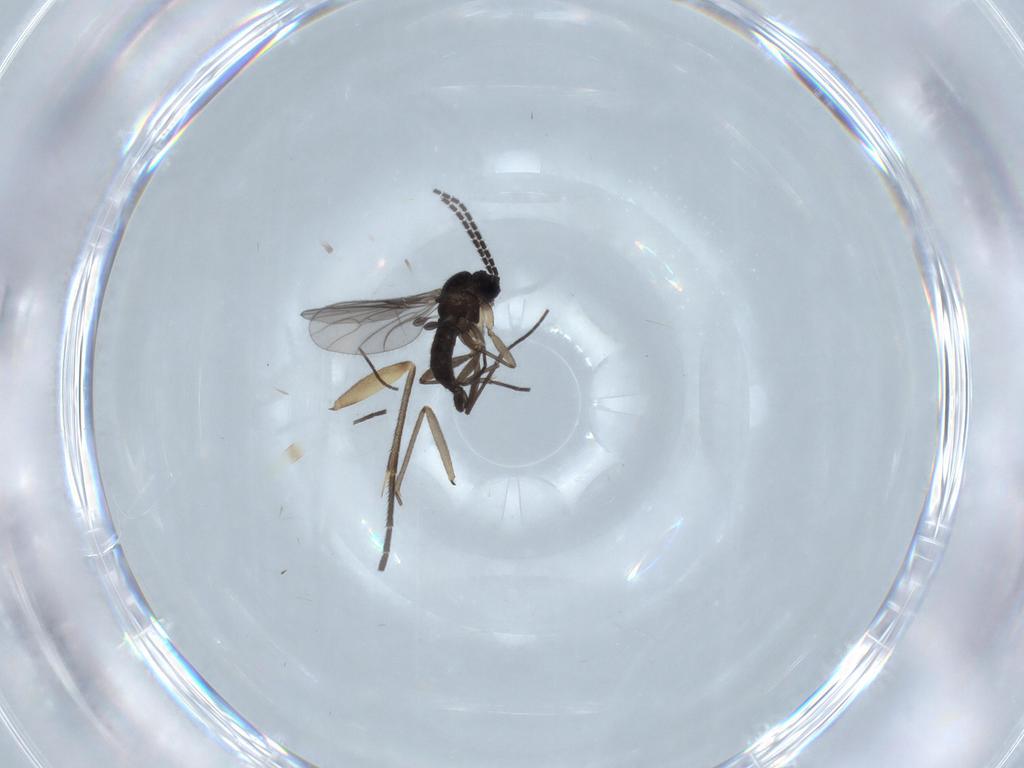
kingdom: Animalia
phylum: Arthropoda
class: Insecta
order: Diptera
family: Sciaridae
